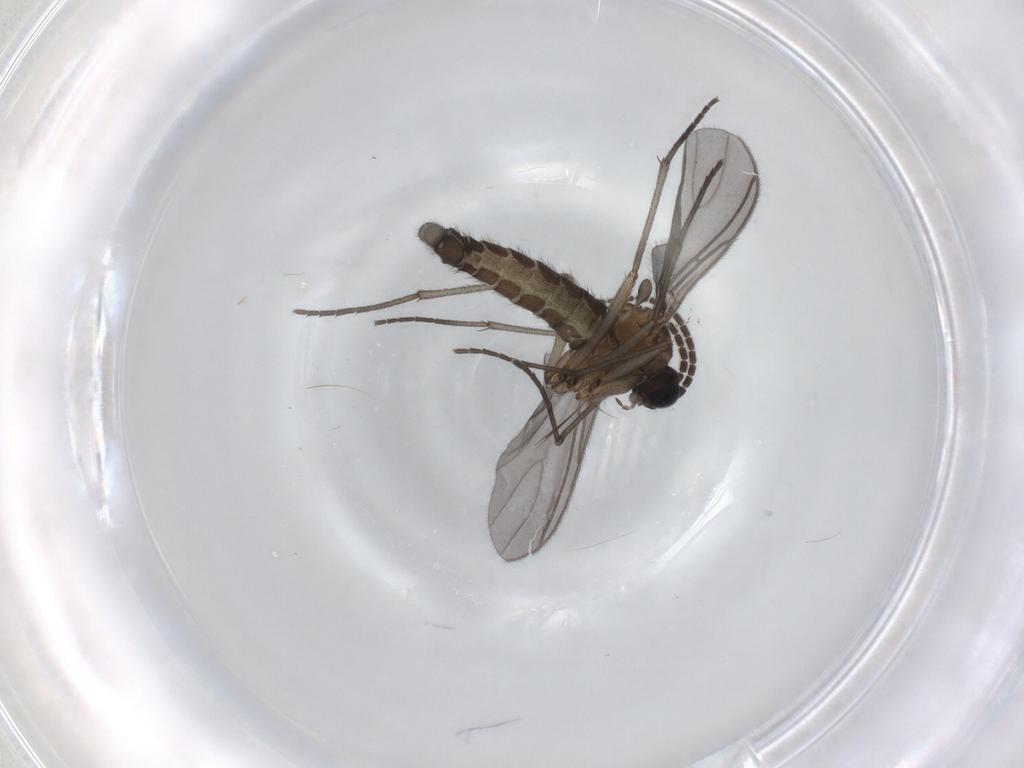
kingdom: Animalia
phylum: Arthropoda
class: Insecta
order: Diptera
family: Sciaridae
